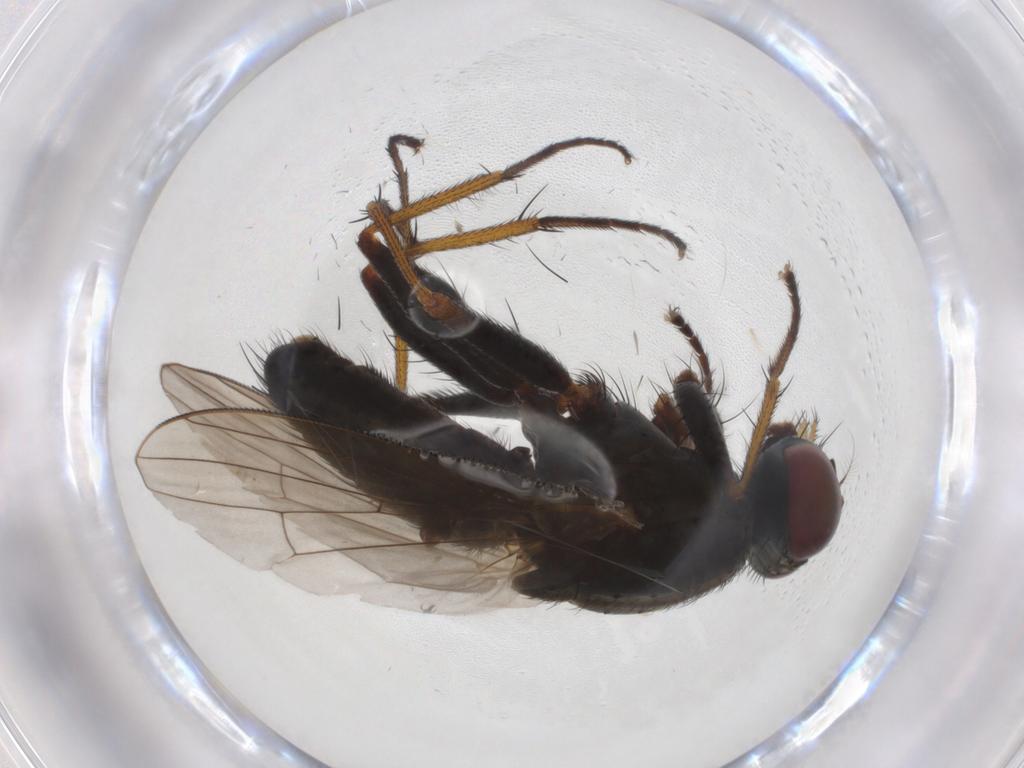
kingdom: Animalia
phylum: Arthropoda
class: Insecta
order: Diptera
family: Muscidae
